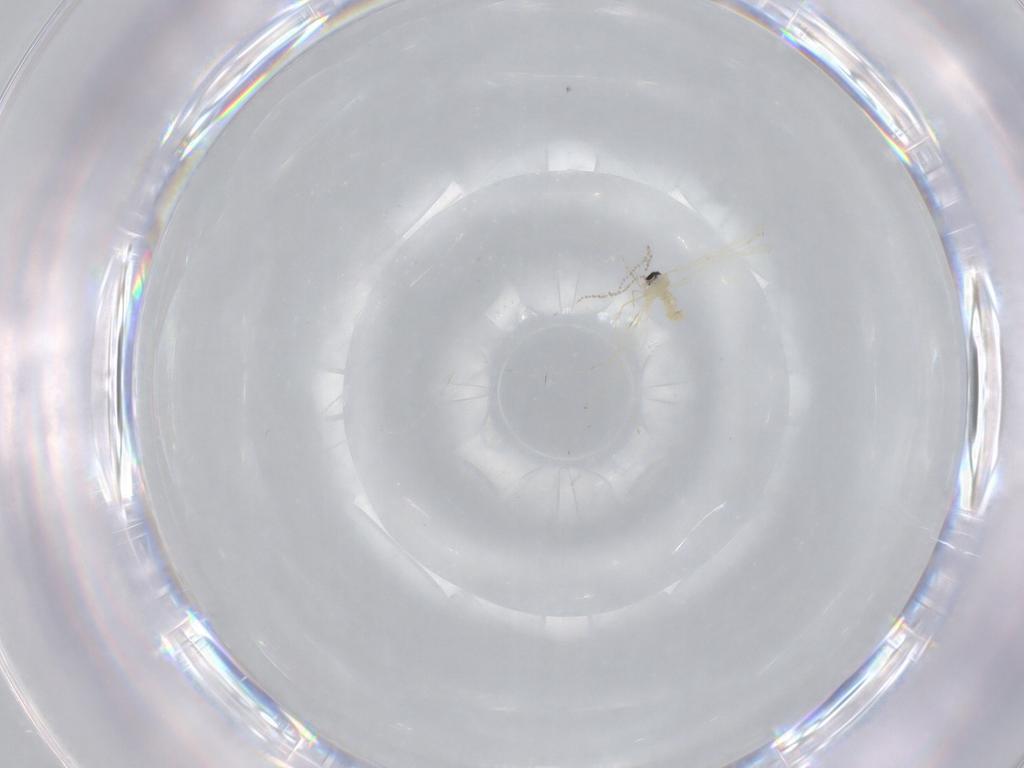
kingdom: Animalia
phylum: Arthropoda
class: Insecta
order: Diptera
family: Cecidomyiidae
